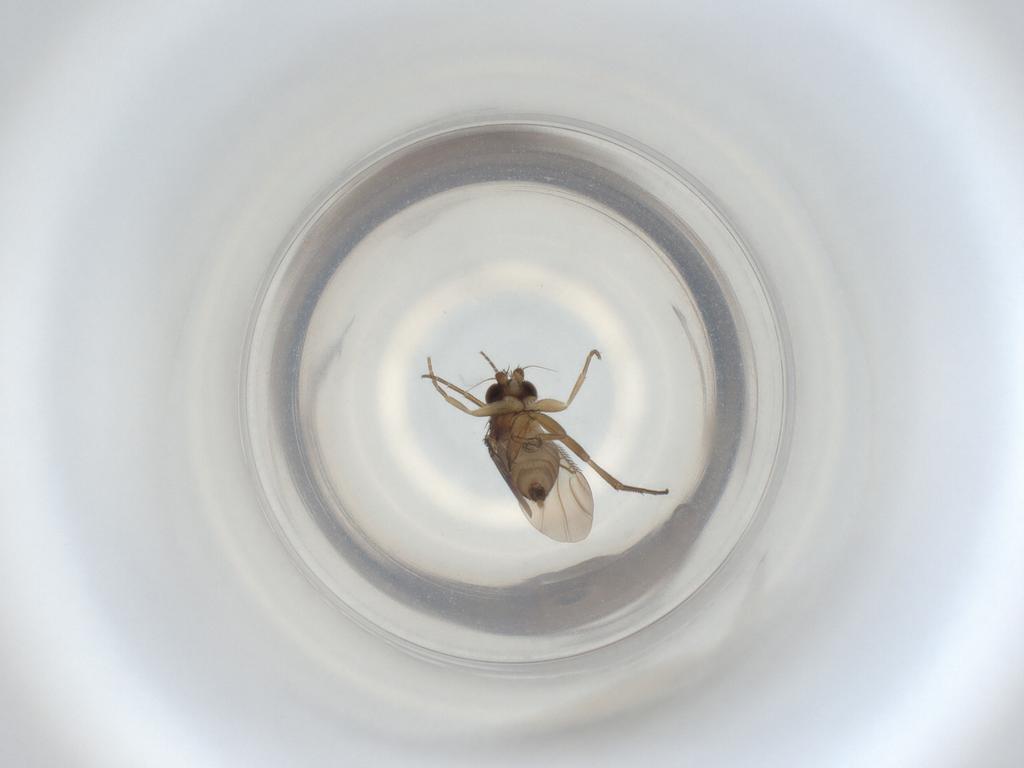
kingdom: Animalia
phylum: Arthropoda
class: Insecta
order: Diptera
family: Phoridae
